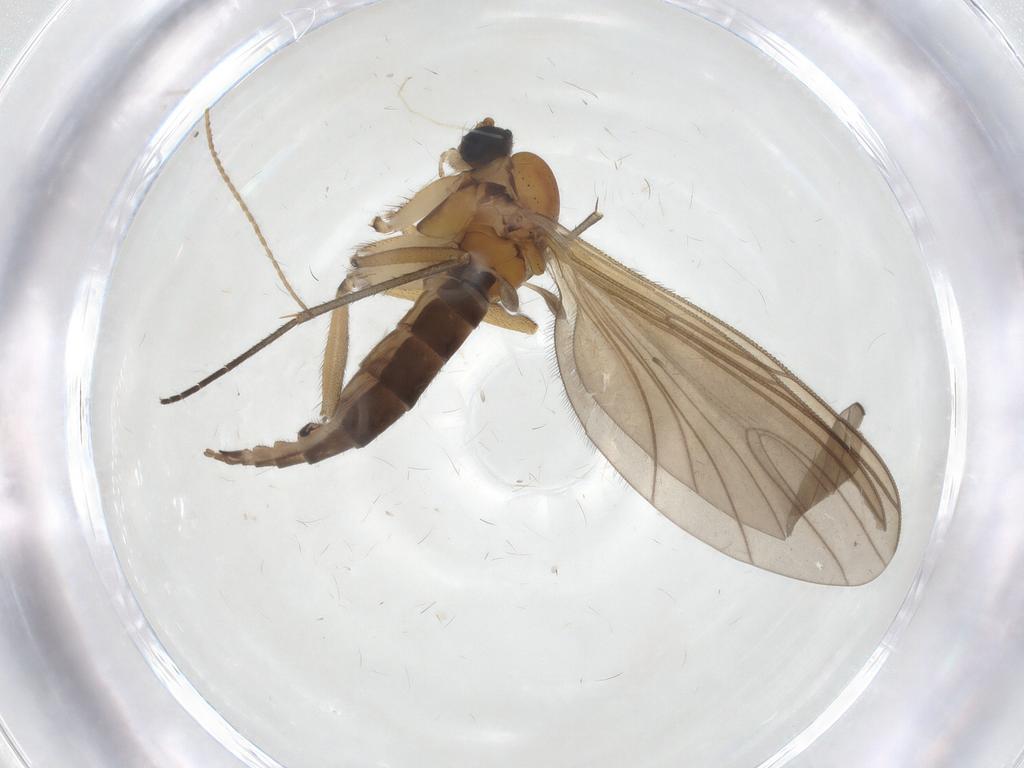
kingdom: Animalia
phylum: Arthropoda
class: Insecta
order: Diptera
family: Sciaridae
